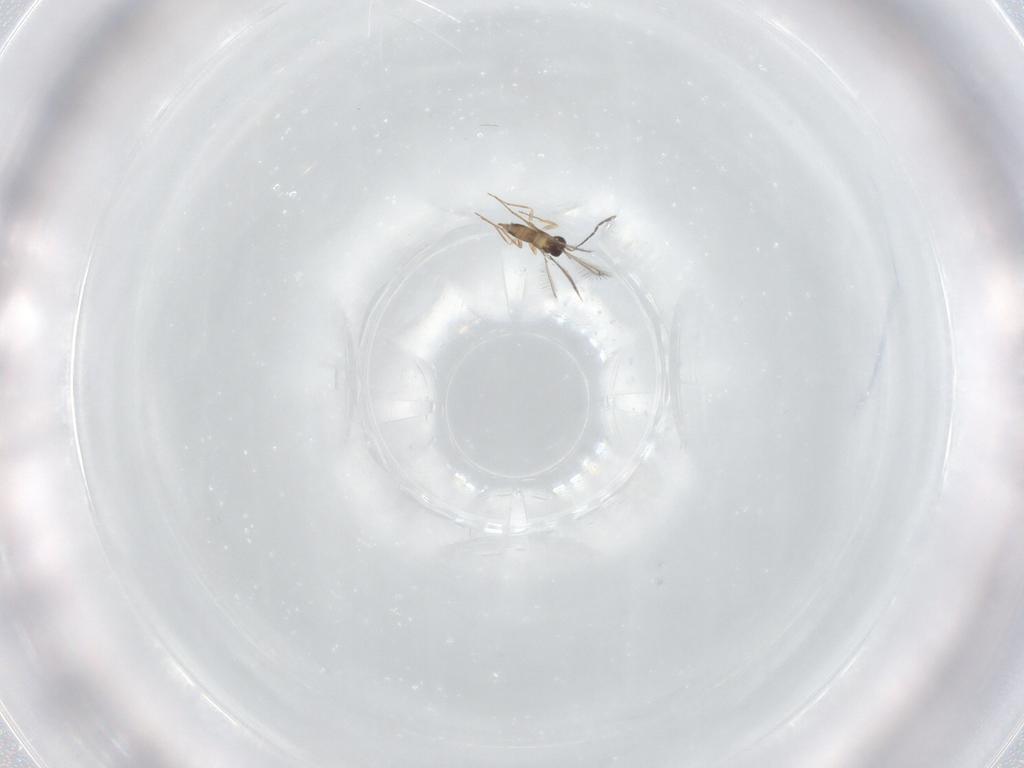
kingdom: Animalia
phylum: Arthropoda
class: Insecta
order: Hymenoptera
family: Mymaridae
